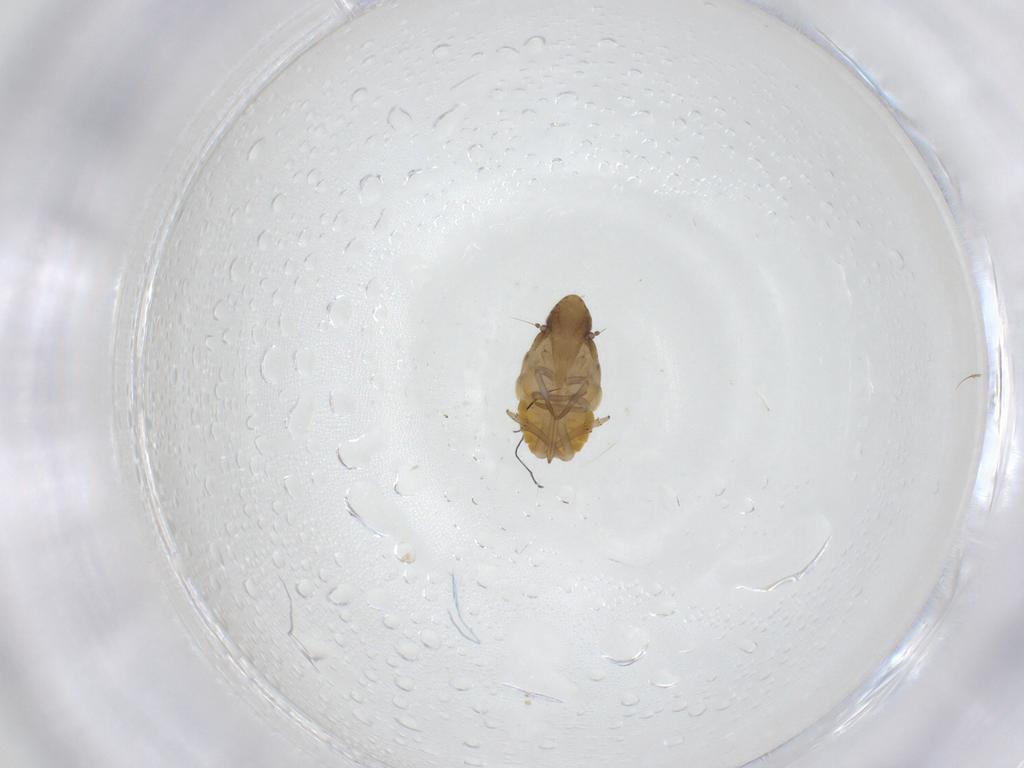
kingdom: Animalia
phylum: Arthropoda
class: Insecta
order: Hemiptera
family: Flatidae
